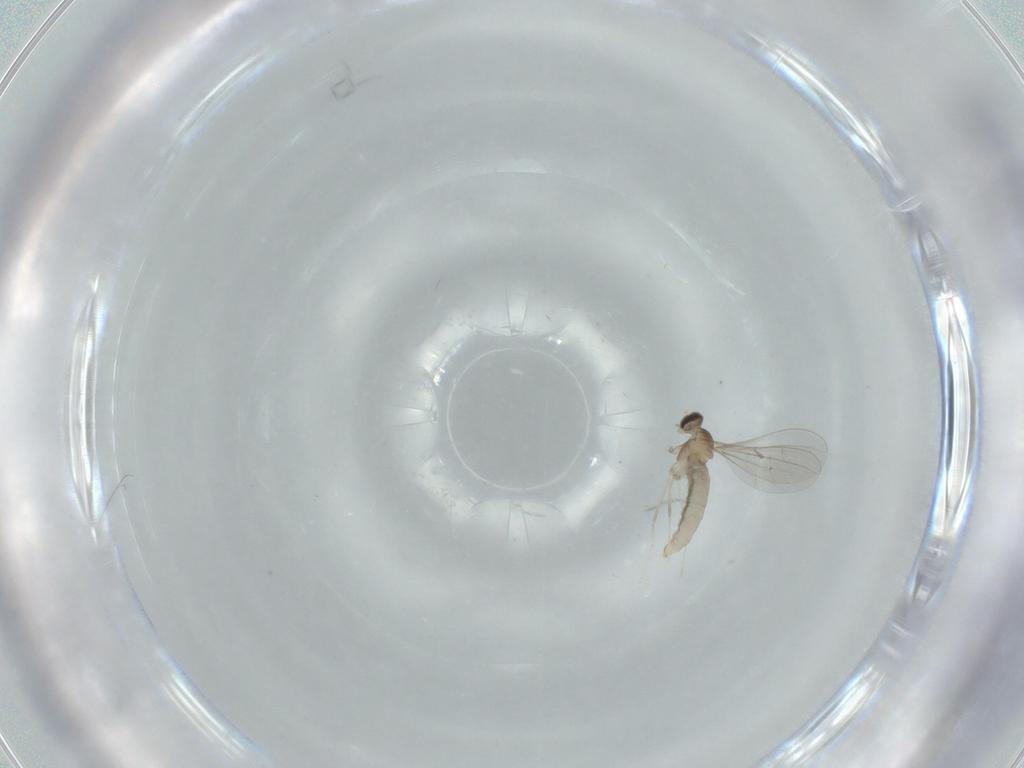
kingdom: Animalia
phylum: Arthropoda
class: Insecta
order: Diptera
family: Cecidomyiidae
